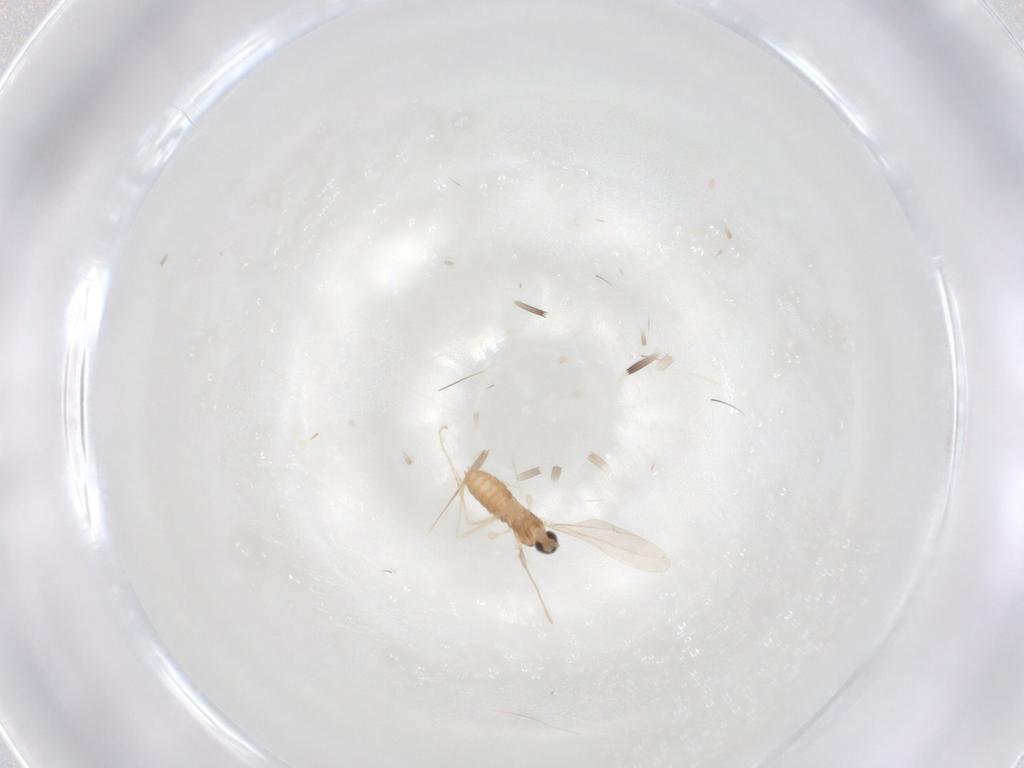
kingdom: Animalia
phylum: Arthropoda
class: Insecta
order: Diptera
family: Cecidomyiidae
